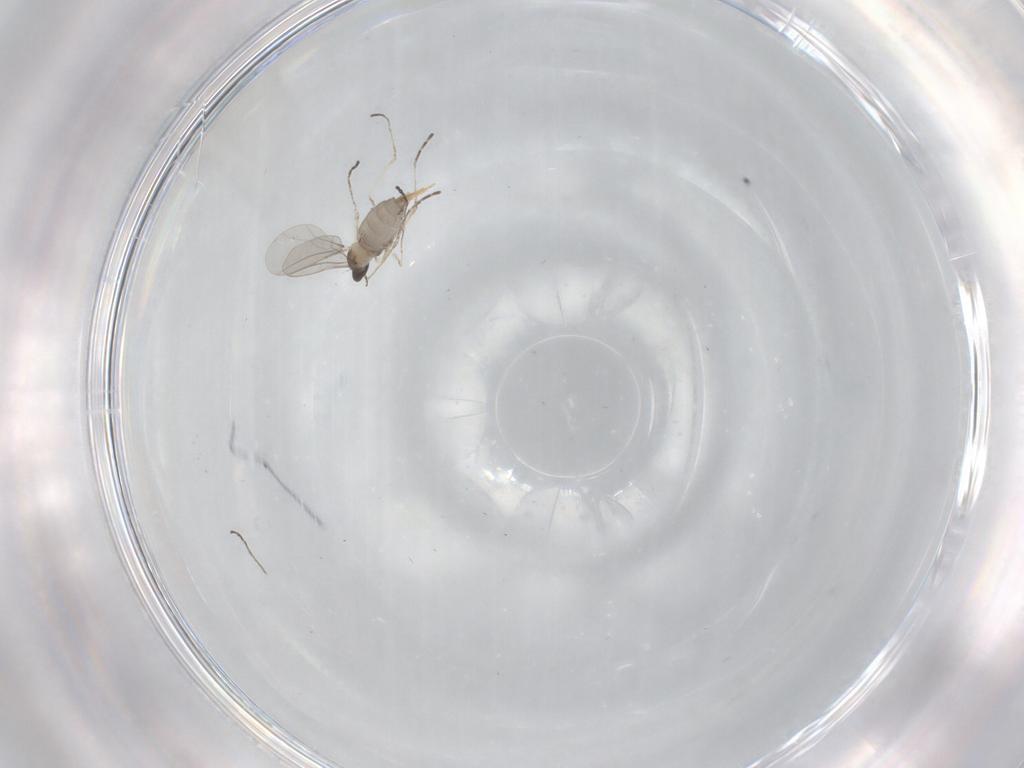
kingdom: Animalia
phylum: Arthropoda
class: Insecta
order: Diptera
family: Cecidomyiidae
